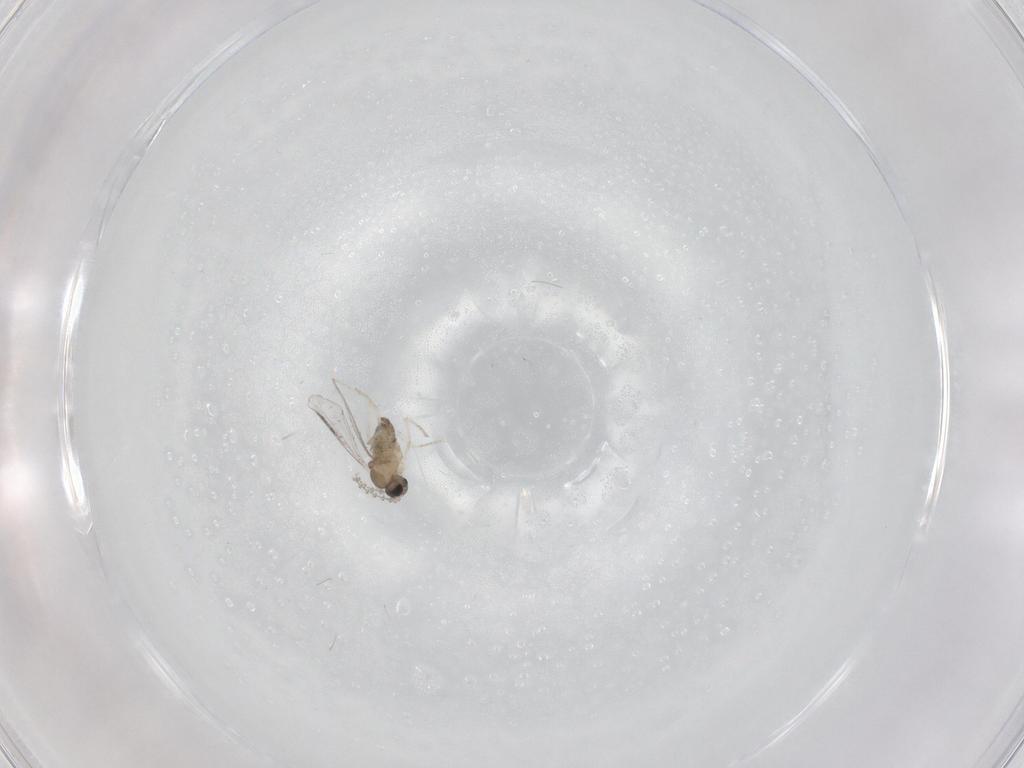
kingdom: Animalia
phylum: Arthropoda
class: Insecta
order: Diptera
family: Cecidomyiidae
